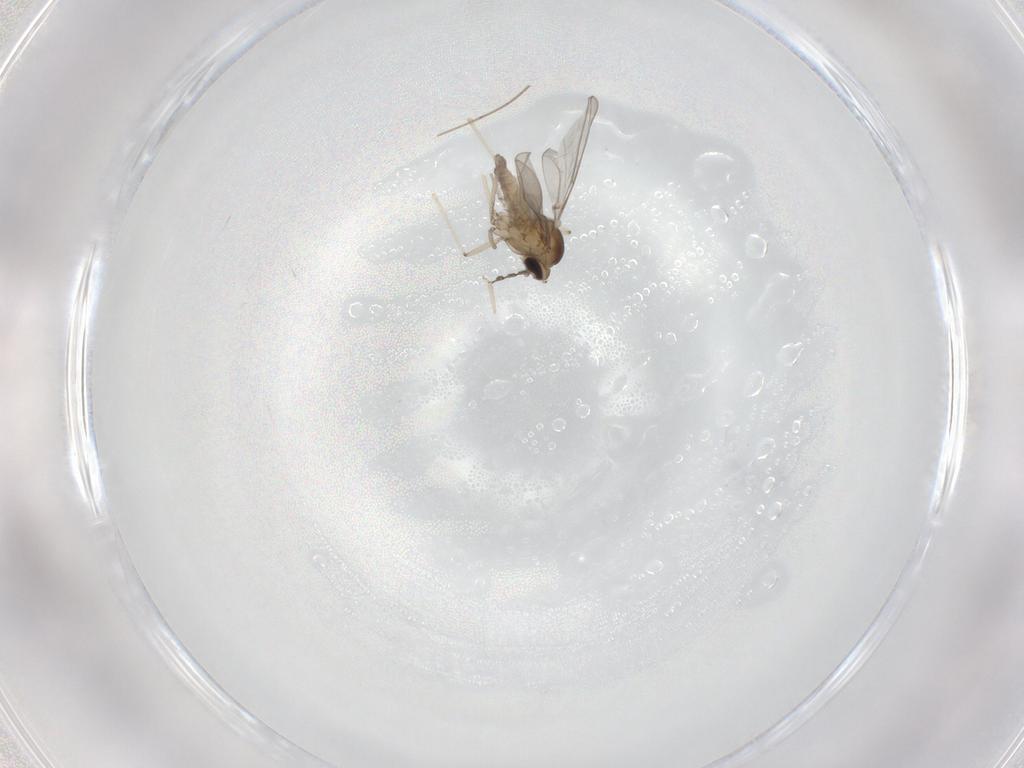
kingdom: Animalia
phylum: Arthropoda
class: Insecta
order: Diptera
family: Cecidomyiidae
